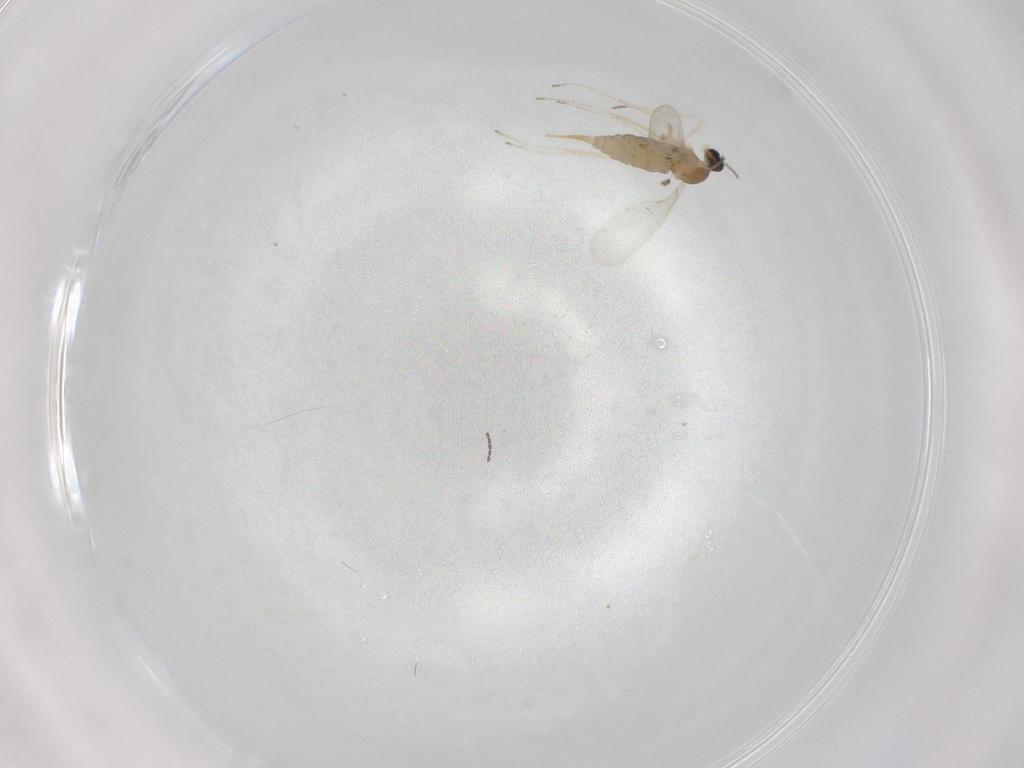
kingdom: Animalia
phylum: Arthropoda
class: Insecta
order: Diptera
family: Cecidomyiidae
